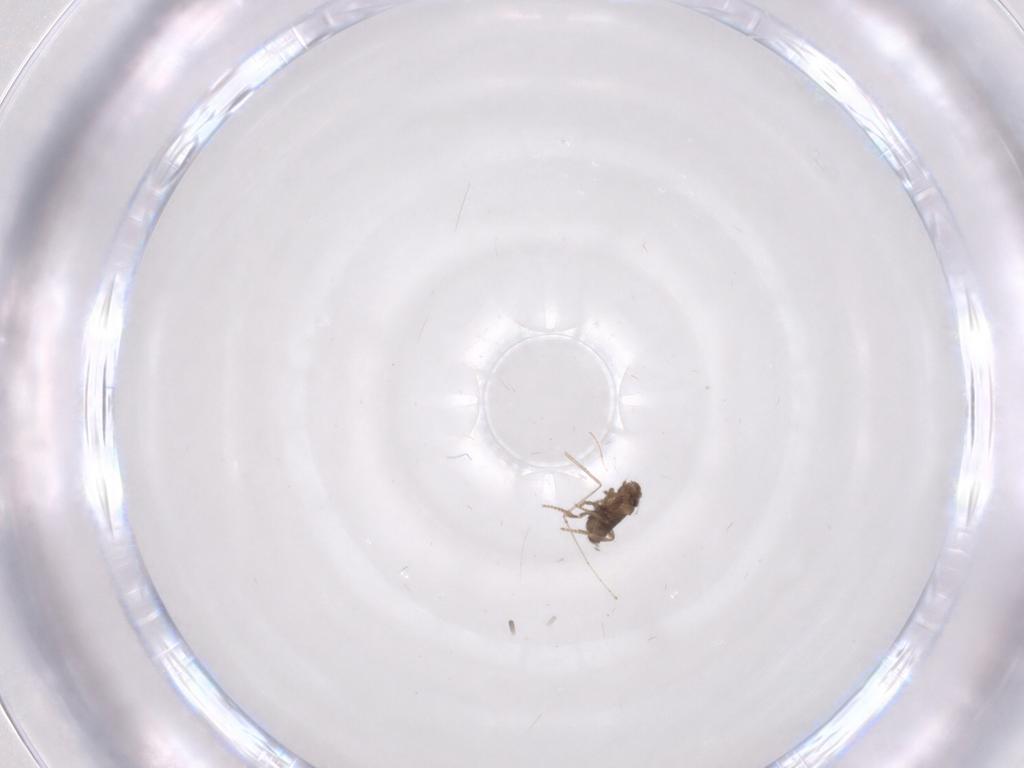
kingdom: Animalia
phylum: Arthropoda
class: Insecta
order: Diptera
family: Cecidomyiidae
